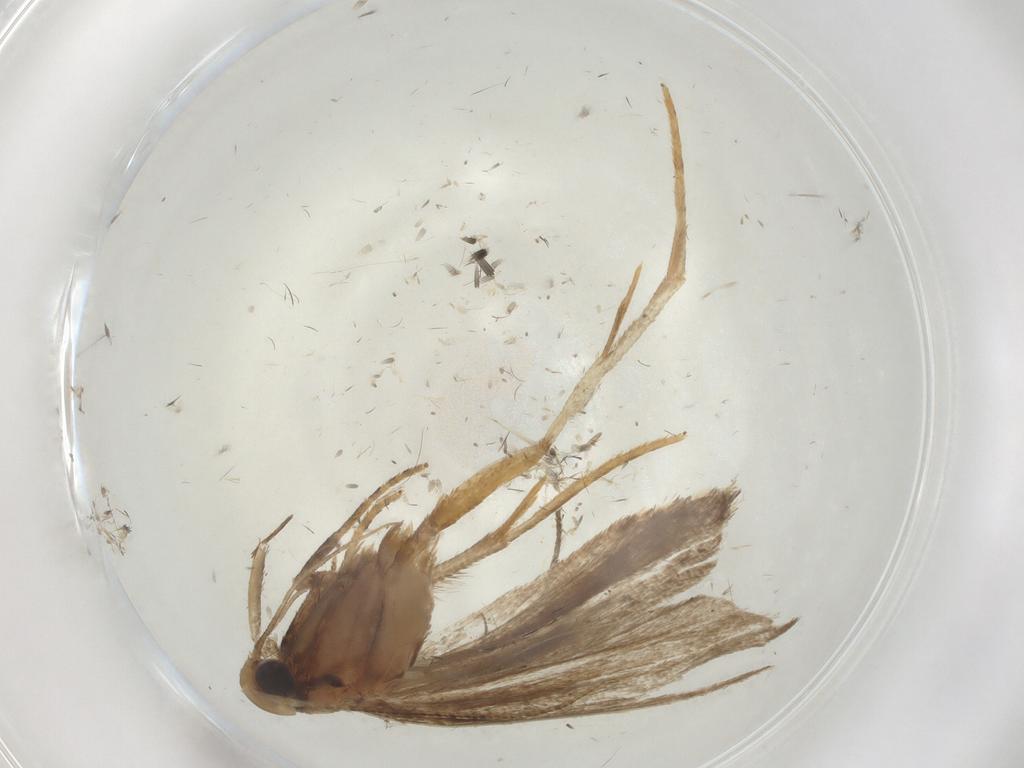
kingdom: Animalia
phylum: Arthropoda
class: Insecta
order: Lepidoptera
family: Gelechiidae
